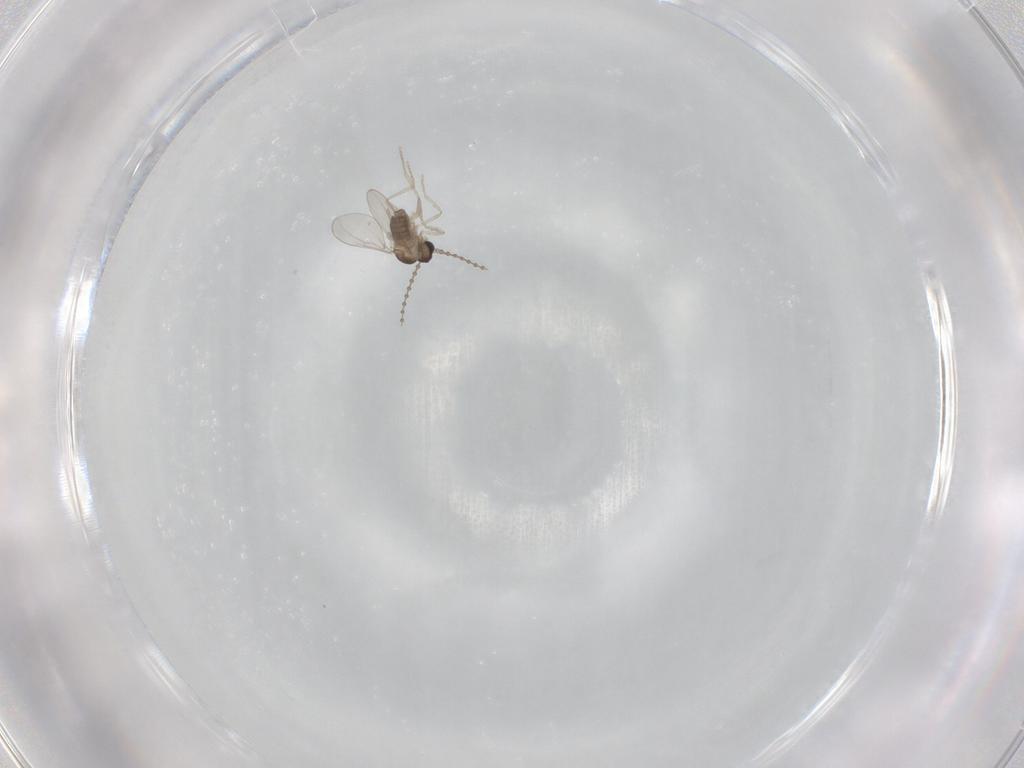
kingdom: Animalia
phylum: Arthropoda
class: Insecta
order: Diptera
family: Cecidomyiidae
